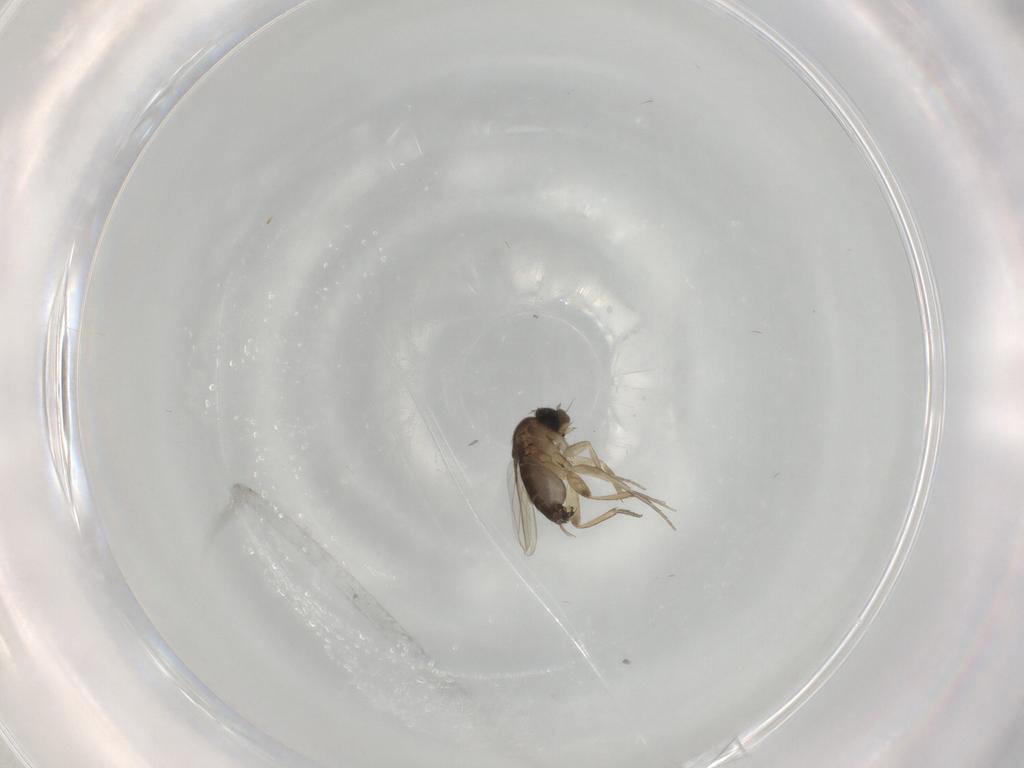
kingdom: Animalia
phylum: Arthropoda
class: Insecta
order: Diptera
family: Phoridae
